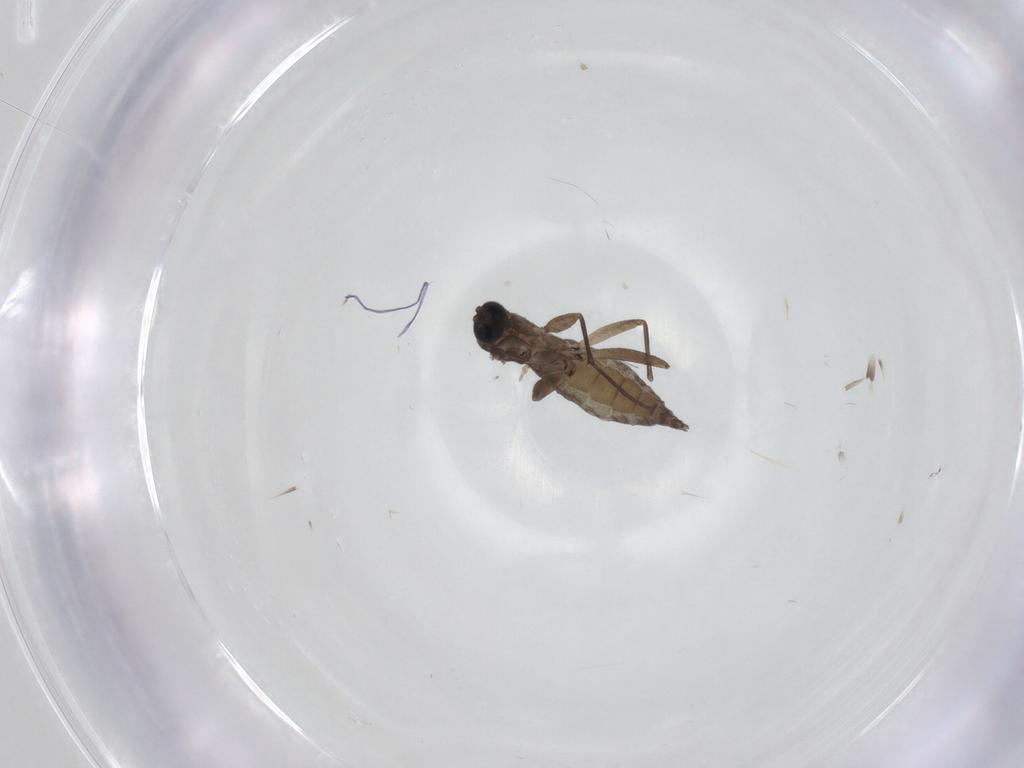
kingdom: Animalia
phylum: Arthropoda
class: Insecta
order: Diptera
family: Sciaridae
